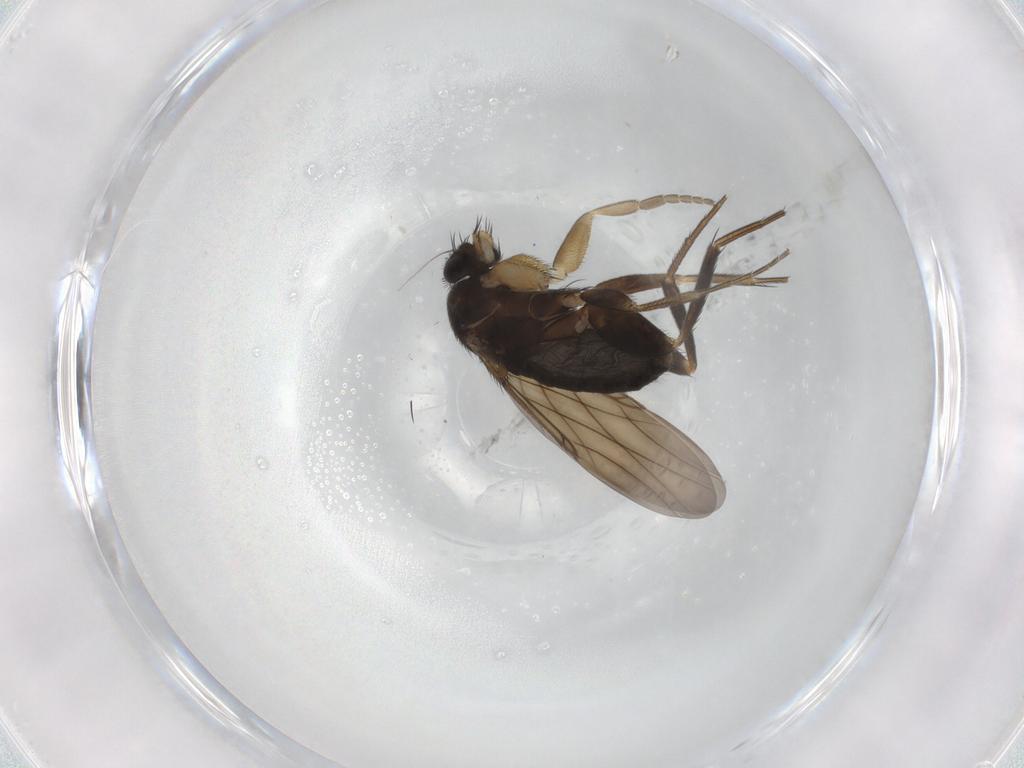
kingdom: Animalia
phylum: Arthropoda
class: Insecta
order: Diptera
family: Phoridae
